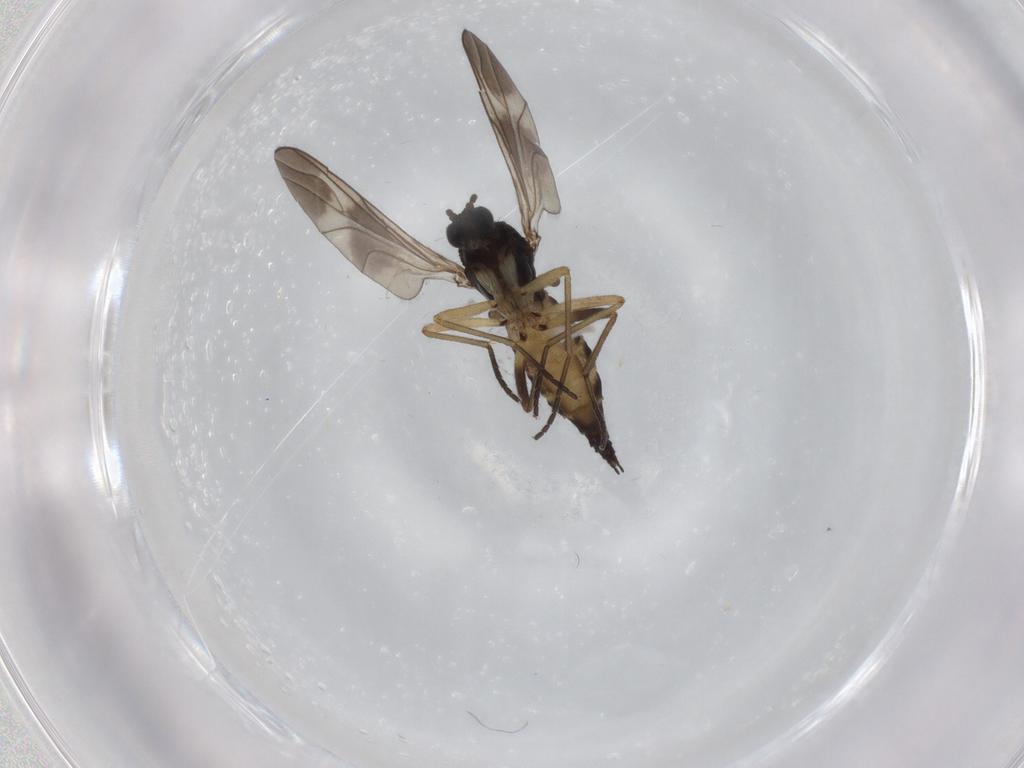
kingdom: Animalia
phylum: Arthropoda
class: Insecta
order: Diptera
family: Sciaridae
